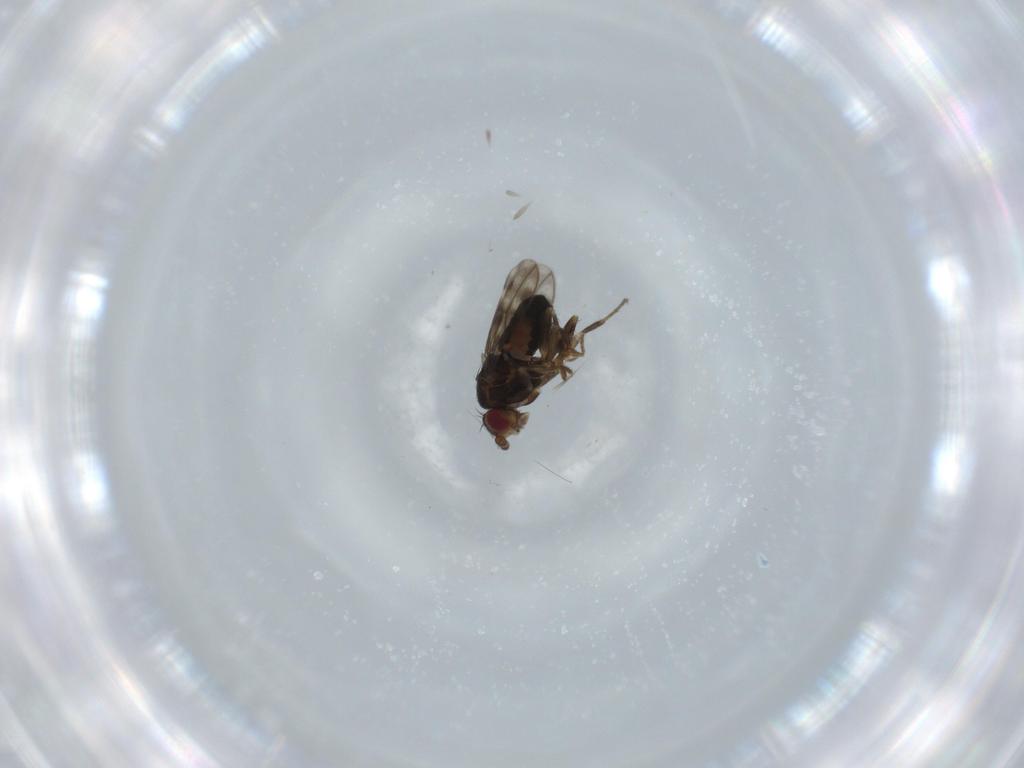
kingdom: Animalia
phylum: Arthropoda
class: Insecta
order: Diptera
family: Sphaeroceridae
